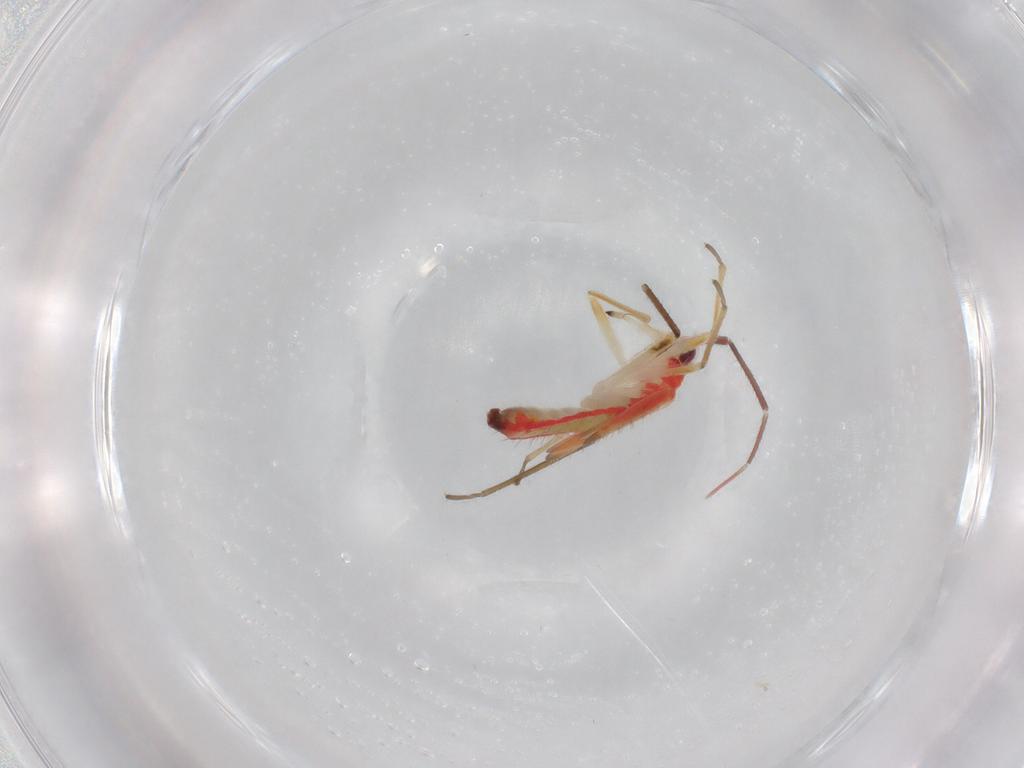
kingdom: Animalia
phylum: Arthropoda
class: Insecta
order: Hemiptera
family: Miridae
